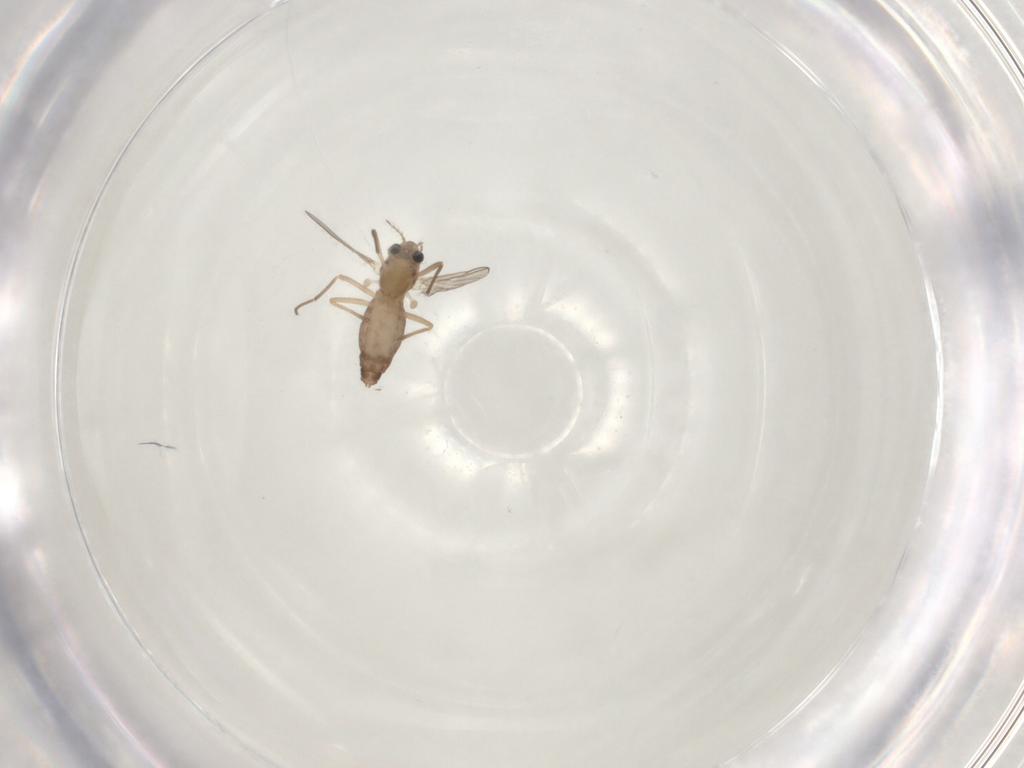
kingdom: Animalia
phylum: Arthropoda
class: Insecta
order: Diptera
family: Chironomidae
